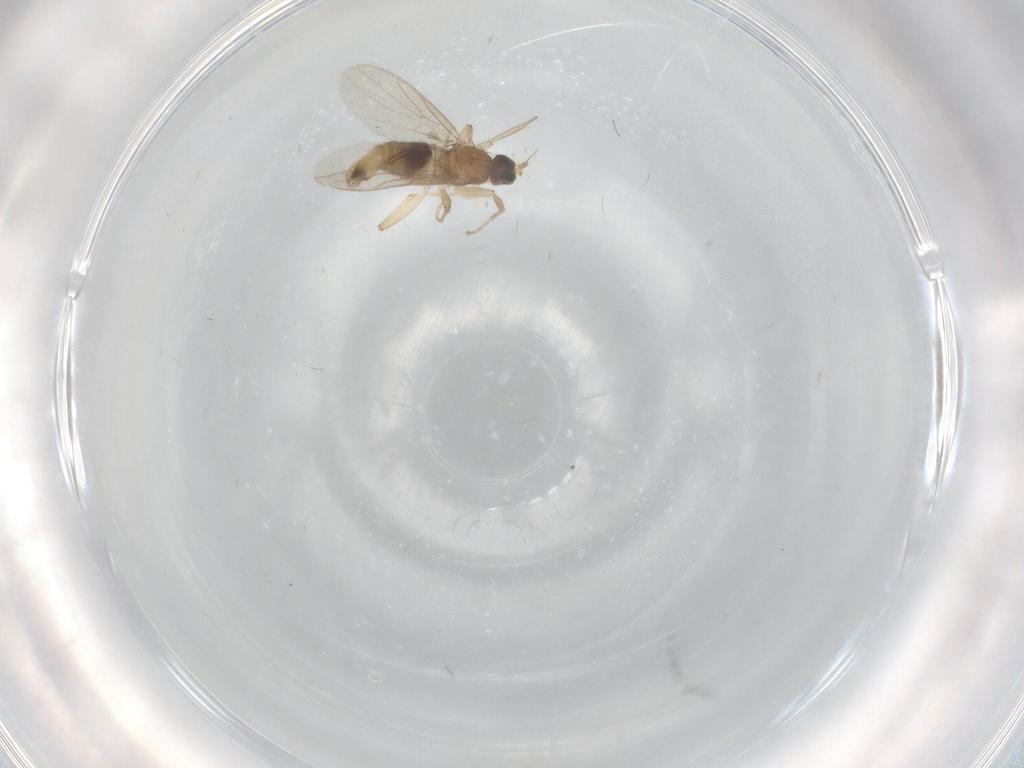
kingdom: Animalia
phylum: Arthropoda
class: Insecta
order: Diptera
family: Hybotidae
